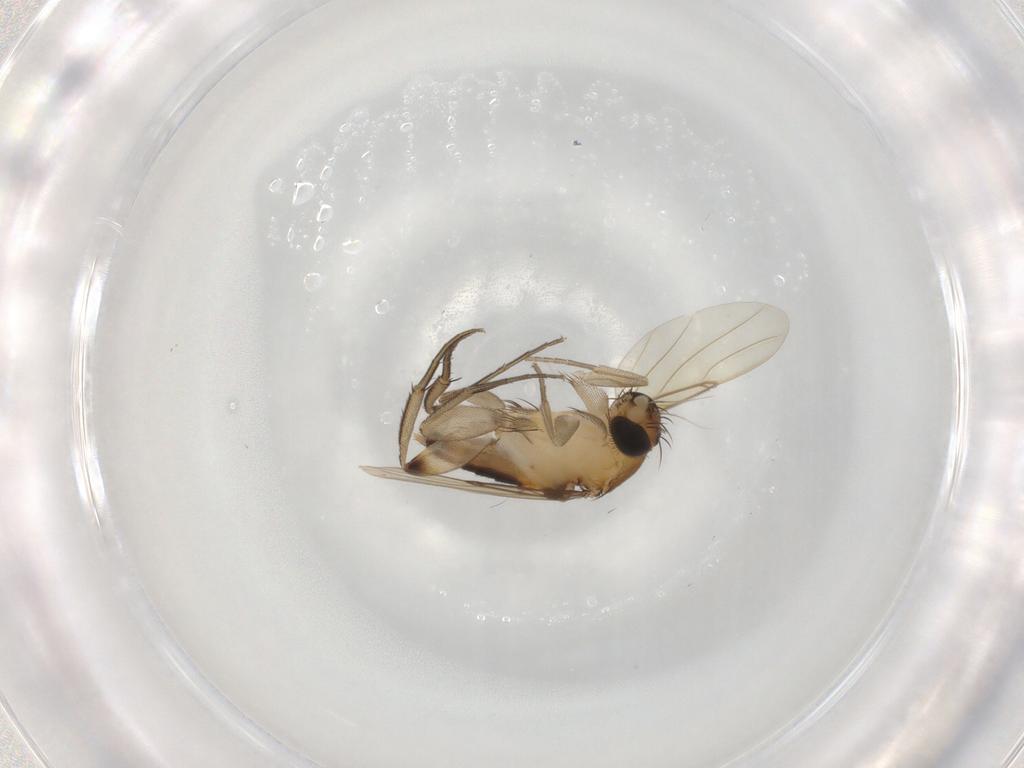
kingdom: Animalia
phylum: Arthropoda
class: Insecta
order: Diptera
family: Phoridae
